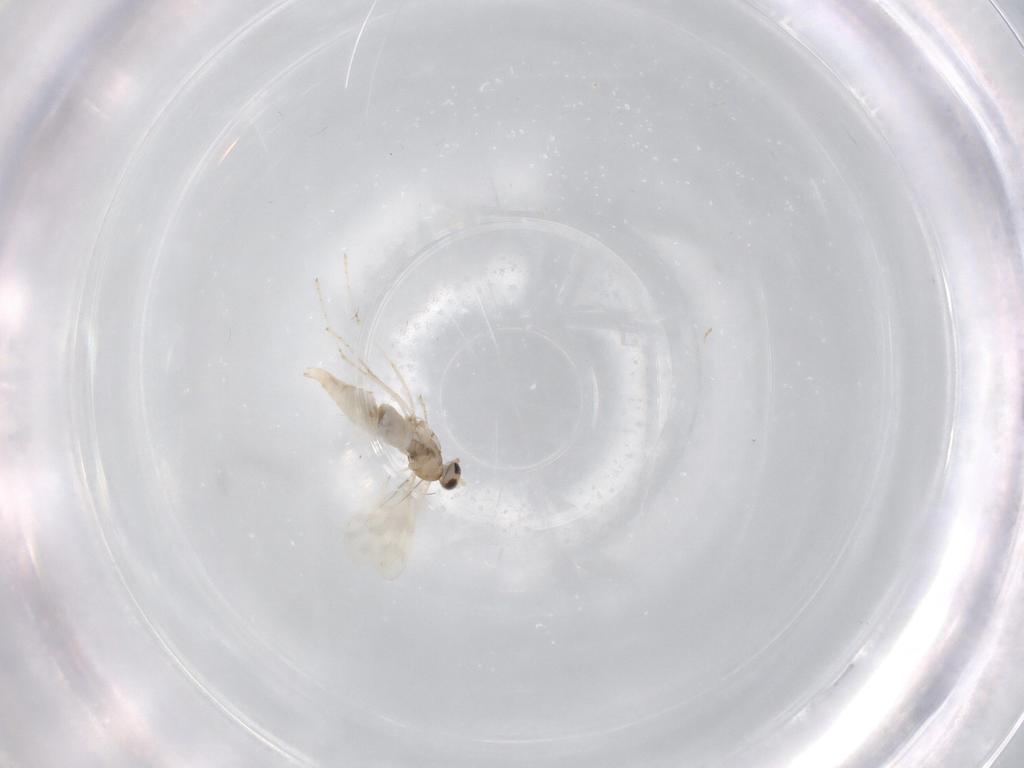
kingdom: Animalia
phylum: Arthropoda
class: Insecta
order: Diptera
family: Cecidomyiidae
